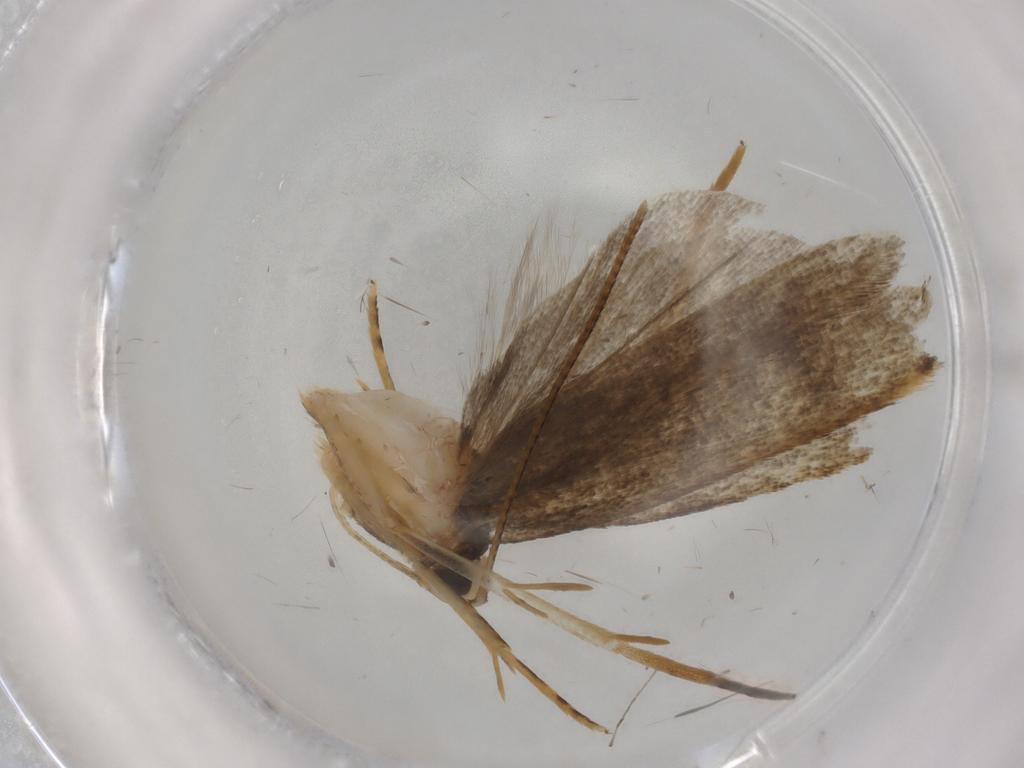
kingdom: Animalia
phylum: Arthropoda
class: Insecta
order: Lepidoptera
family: Autostichidae
